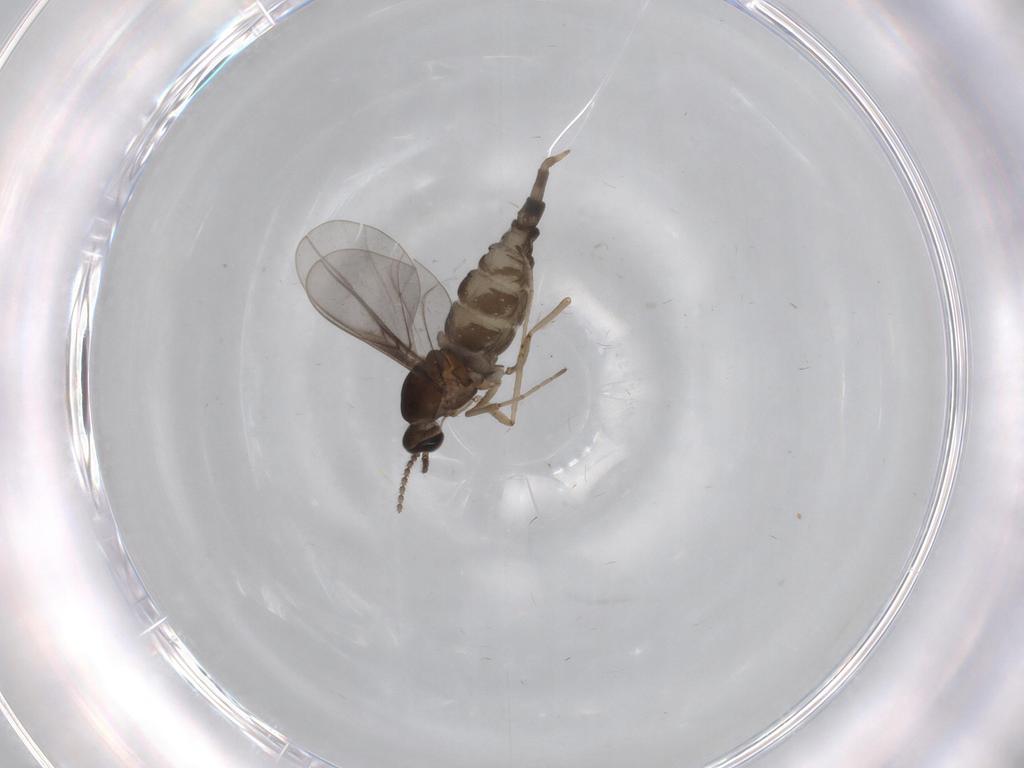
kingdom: Animalia
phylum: Arthropoda
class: Insecta
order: Diptera
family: Cecidomyiidae
